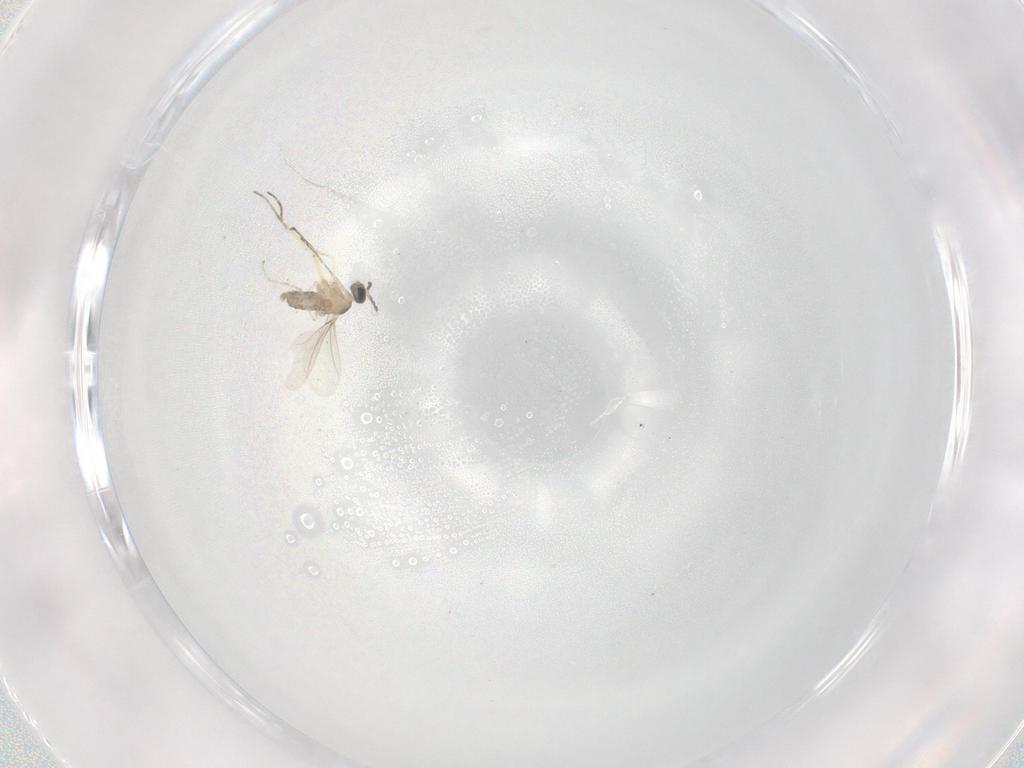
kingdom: Animalia
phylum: Arthropoda
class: Insecta
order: Diptera
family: Cecidomyiidae
